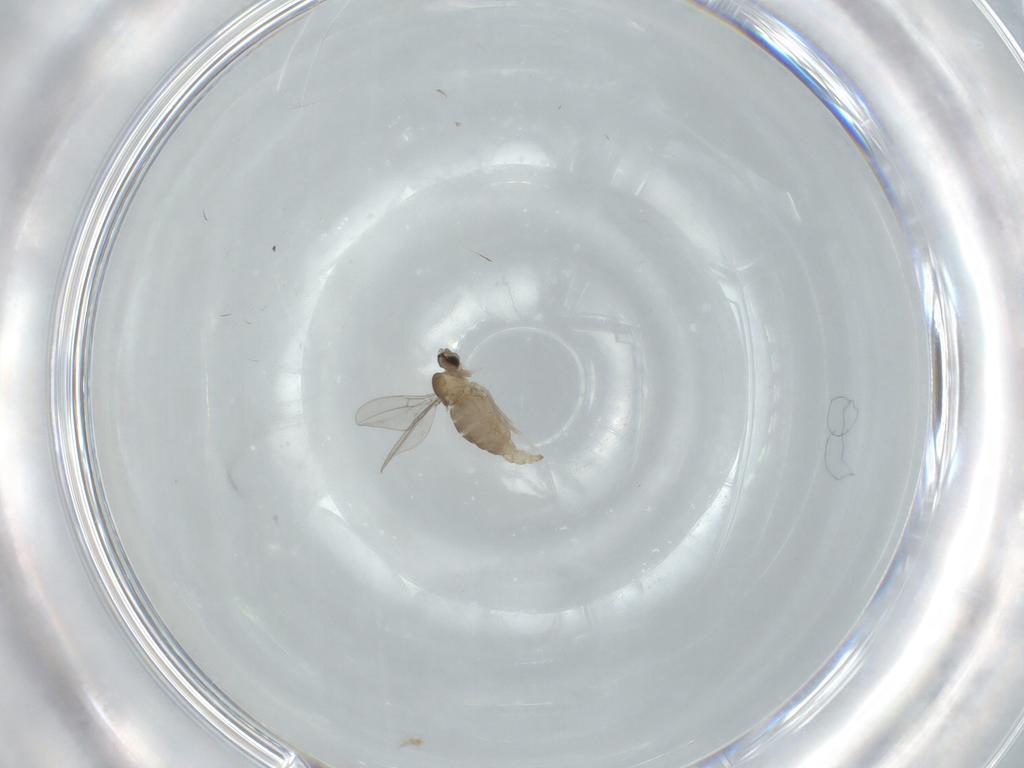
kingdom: Animalia
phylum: Arthropoda
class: Insecta
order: Diptera
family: Cecidomyiidae
